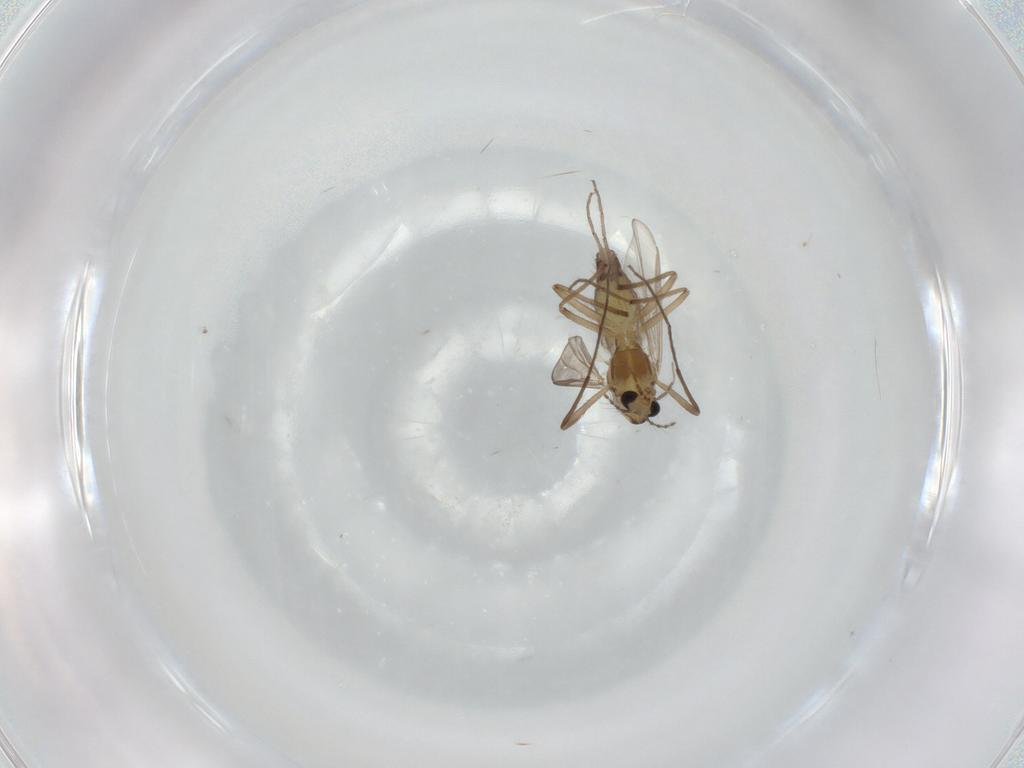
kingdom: Animalia
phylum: Arthropoda
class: Insecta
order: Diptera
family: Chironomidae
